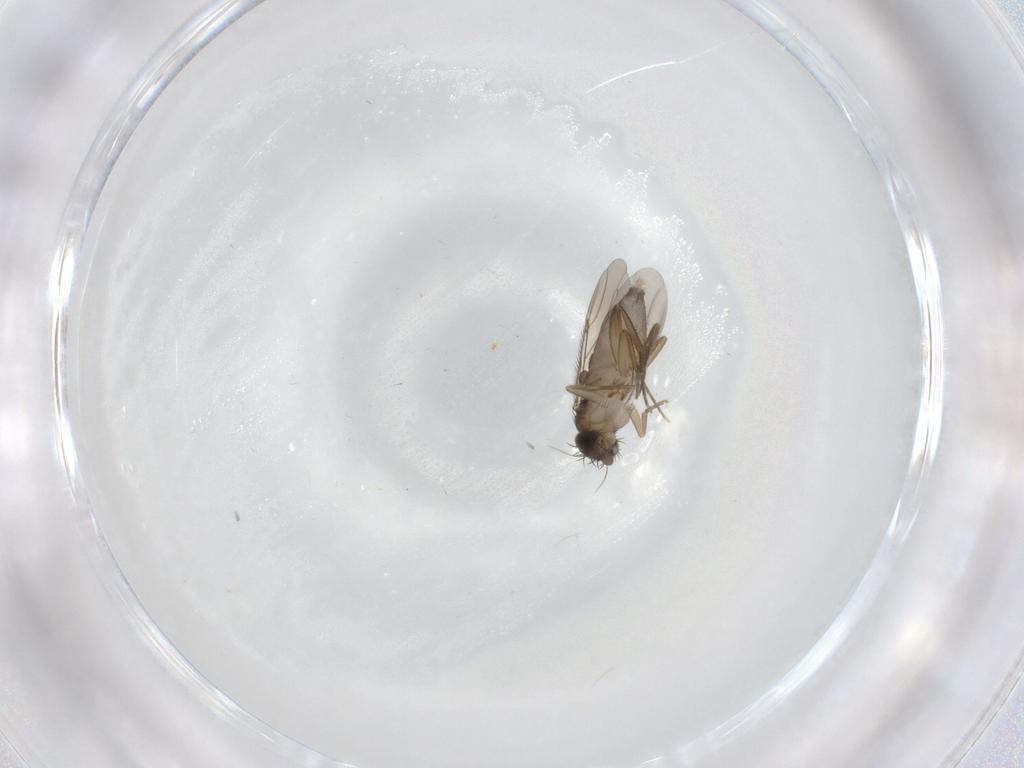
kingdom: Animalia
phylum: Arthropoda
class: Insecta
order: Diptera
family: Phoridae
